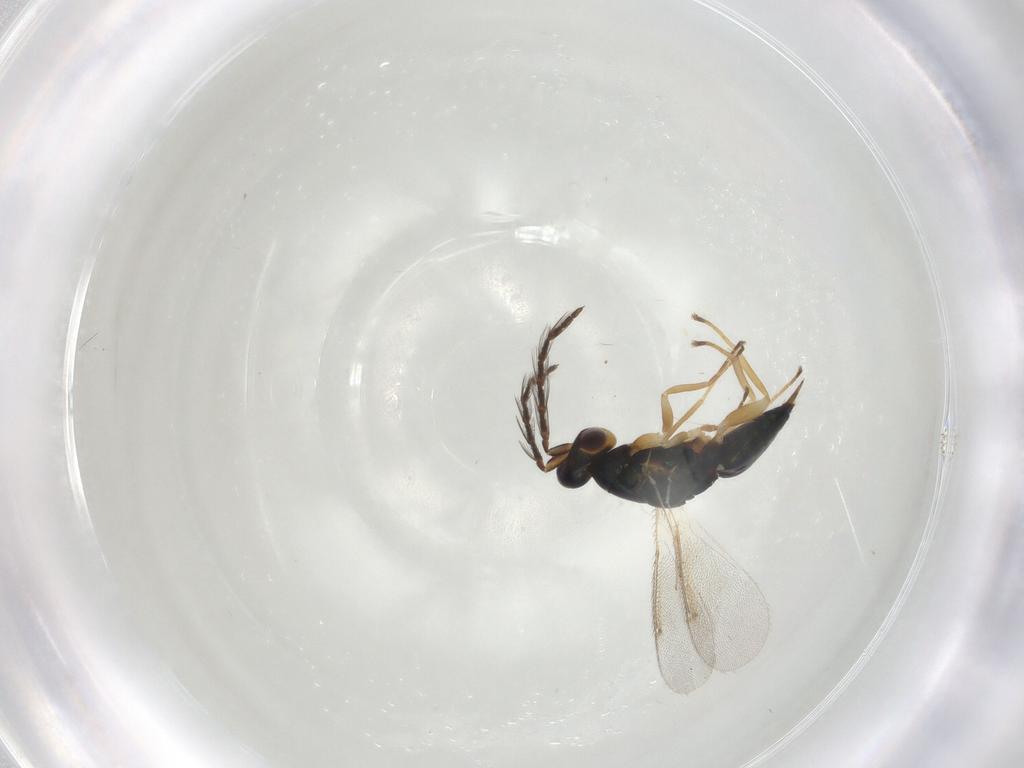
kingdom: Animalia
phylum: Arthropoda
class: Insecta
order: Hymenoptera
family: Eulophidae
